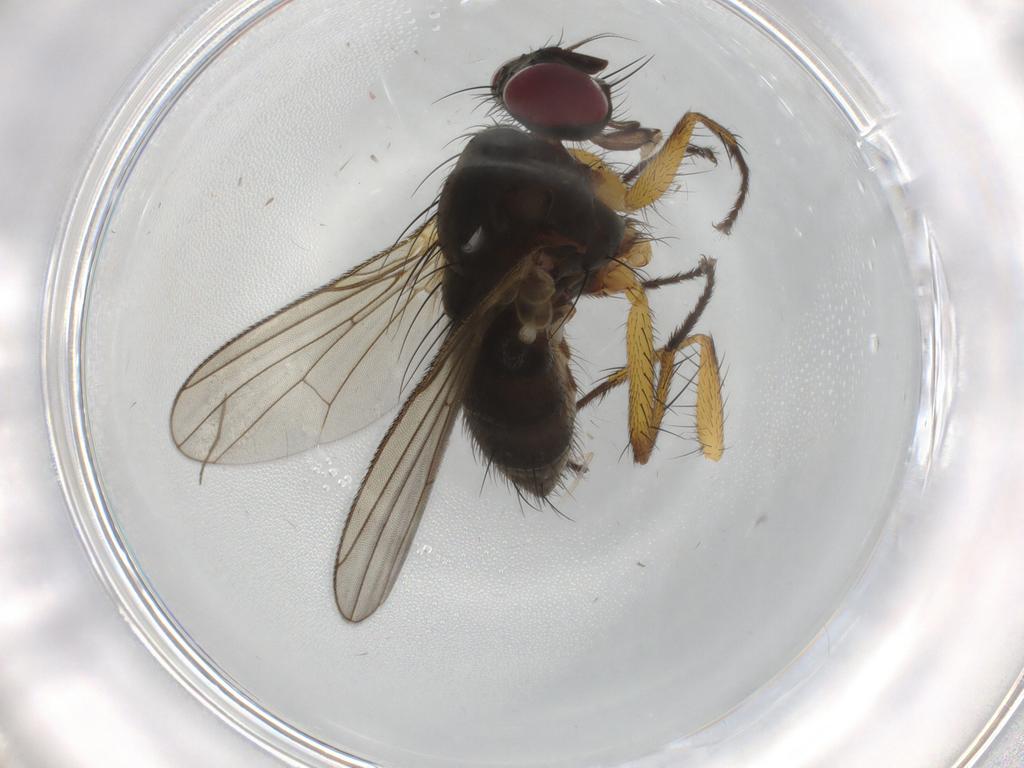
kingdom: Animalia
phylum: Arthropoda
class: Insecta
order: Diptera
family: Muscidae
